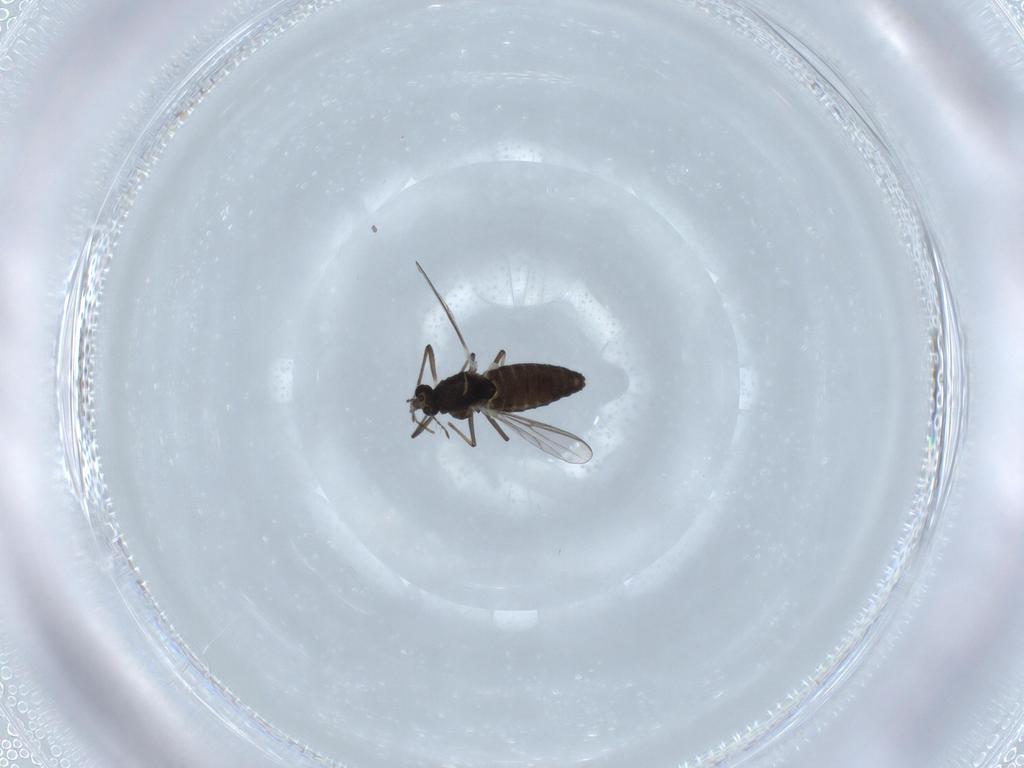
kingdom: Animalia
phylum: Arthropoda
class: Insecta
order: Diptera
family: Chironomidae
